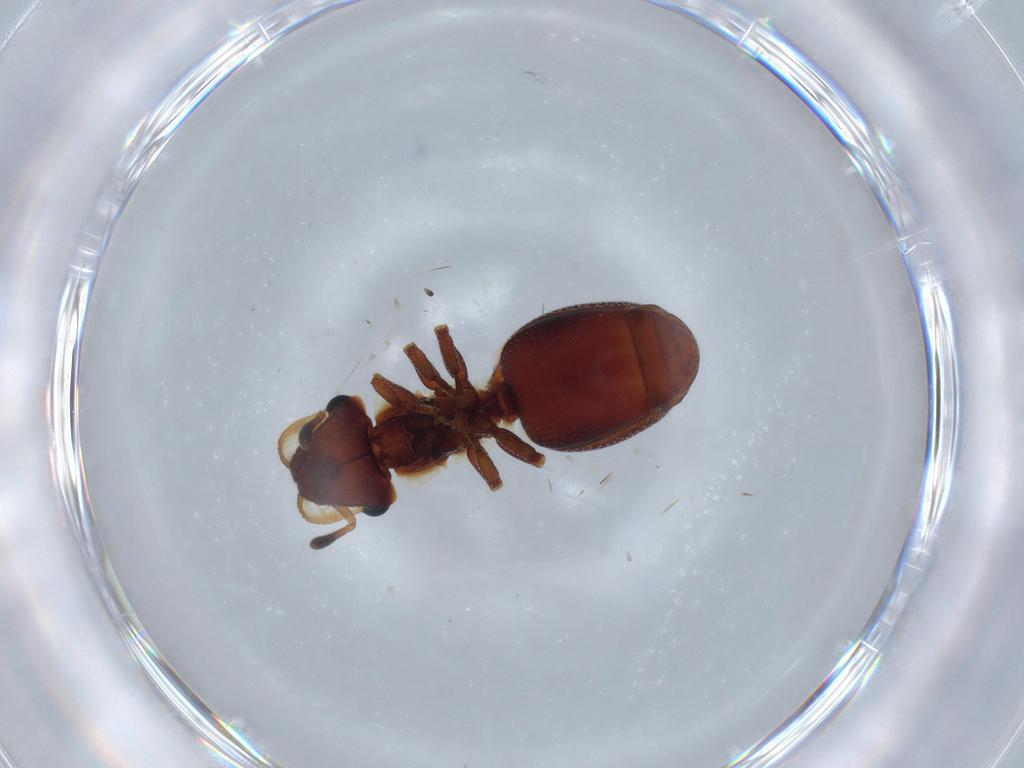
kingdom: Animalia
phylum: Arthropoda
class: Insecta
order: Hymenoptera
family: Formicidae
